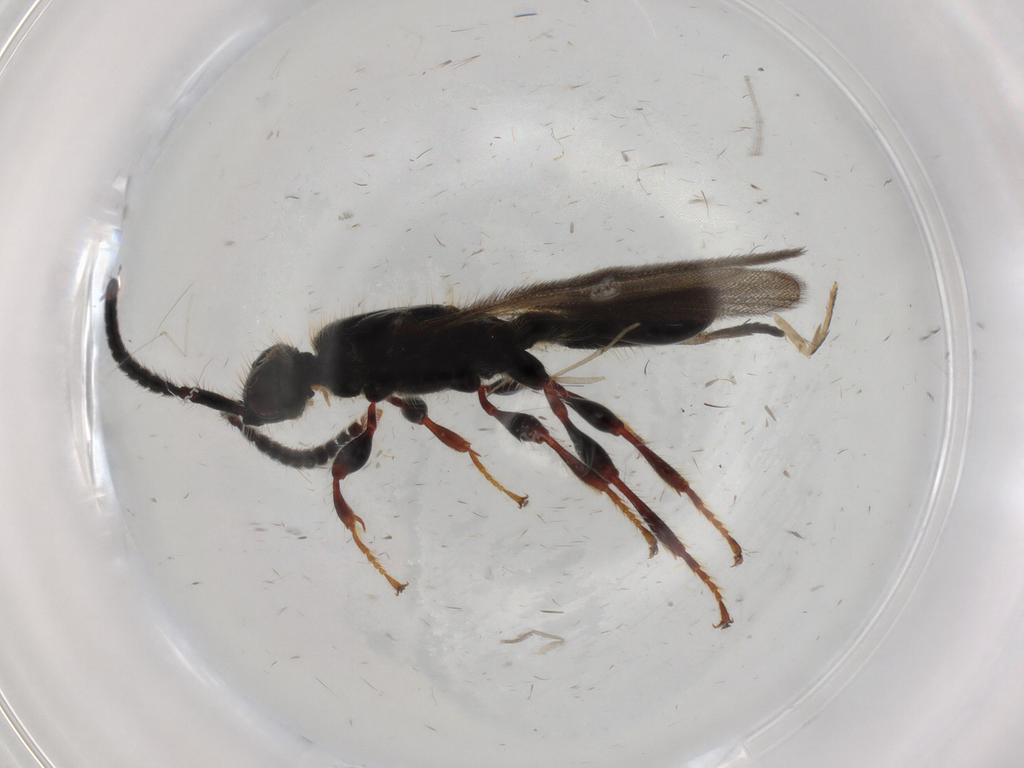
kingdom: Animalia
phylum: Arthropoda
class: Insecta
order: Hymenoptera
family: Diapriidae
